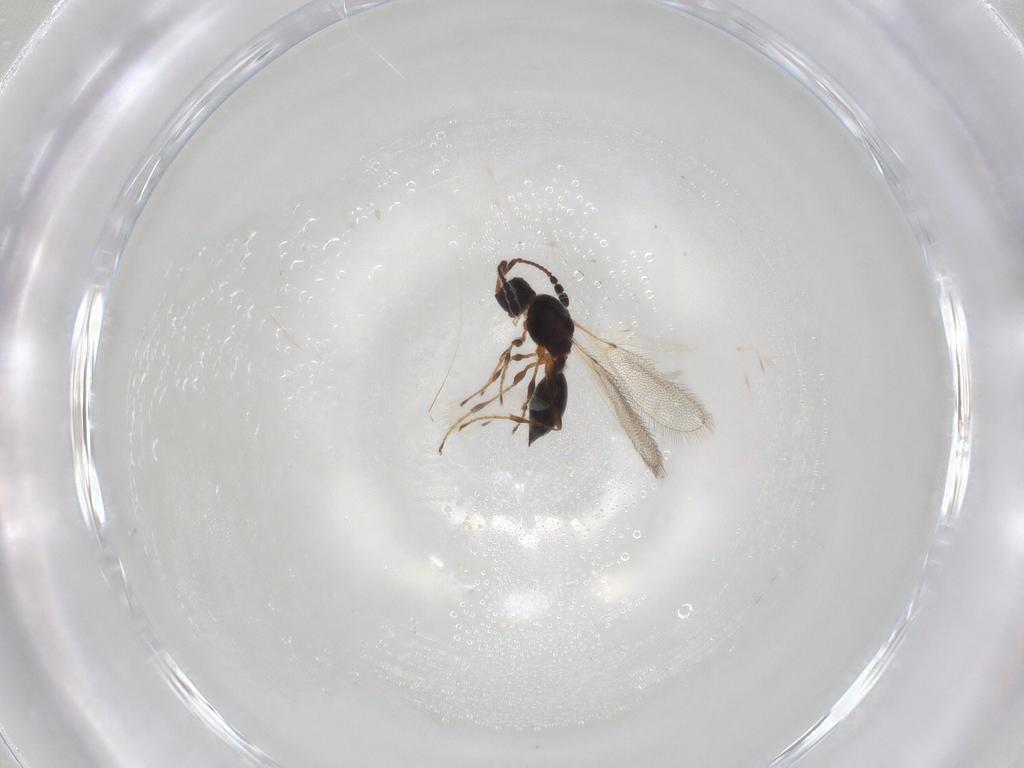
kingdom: Animalia
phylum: Arthropoda
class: Insecta
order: Hymenoptera
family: Diapriidae
